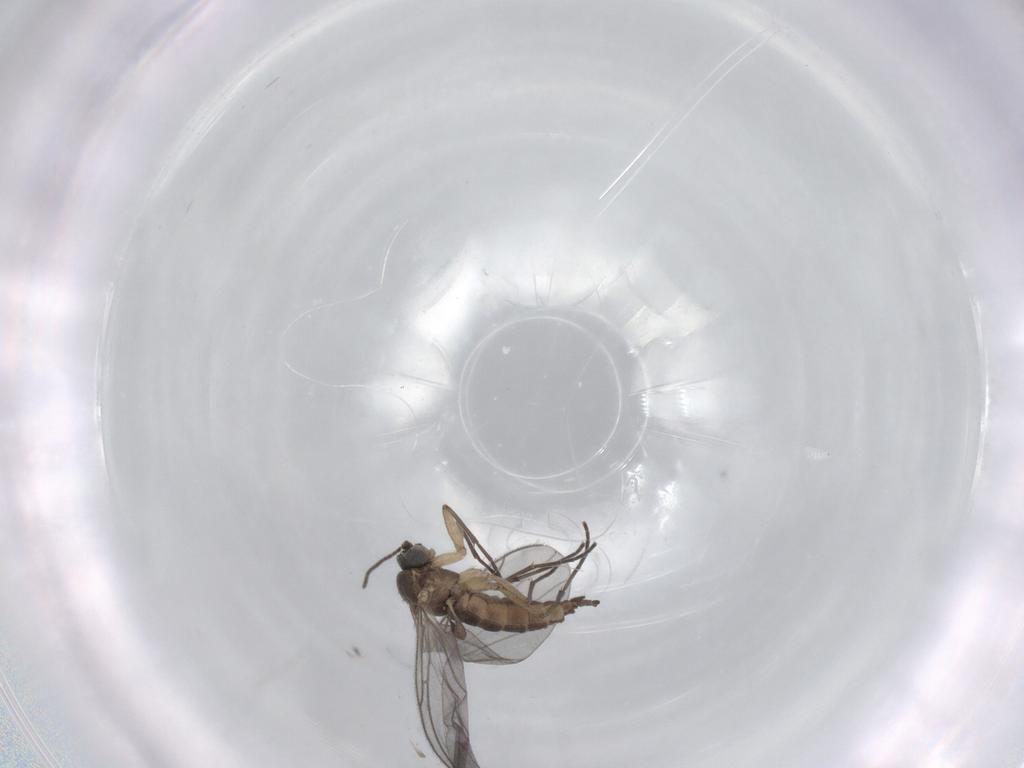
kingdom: Animalia
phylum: Arthropoda
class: Insecta
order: Diptera
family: Sciaridae
